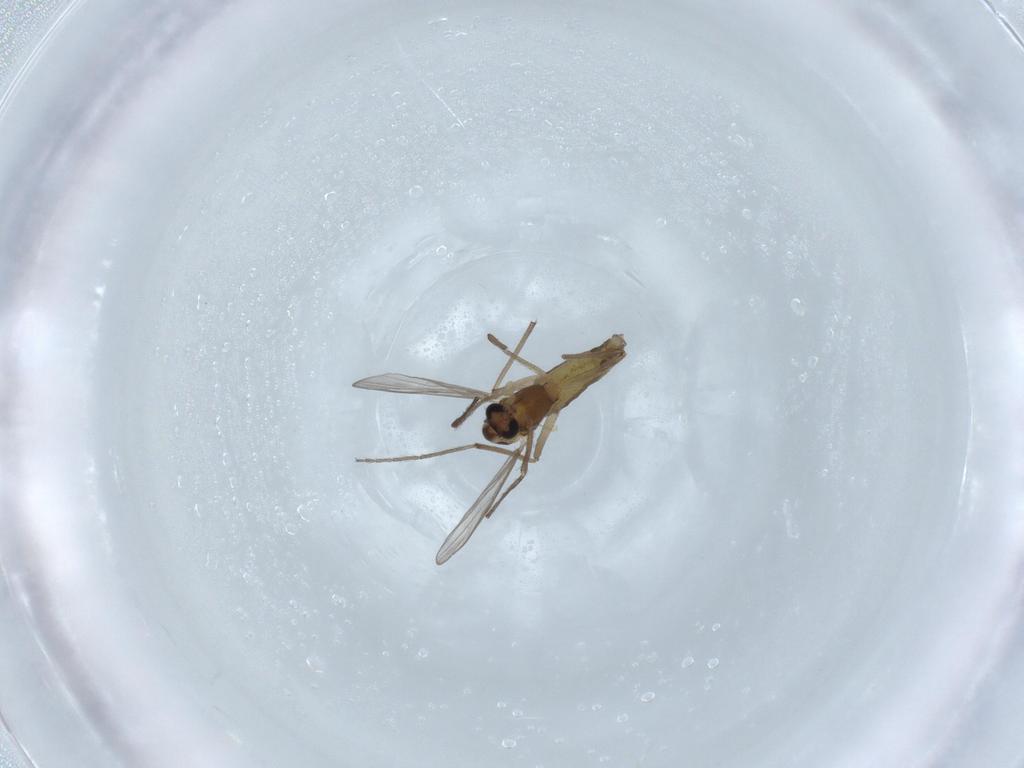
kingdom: Animalia
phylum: Arthropoda
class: Insecta
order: Diptera
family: Chironomidae
